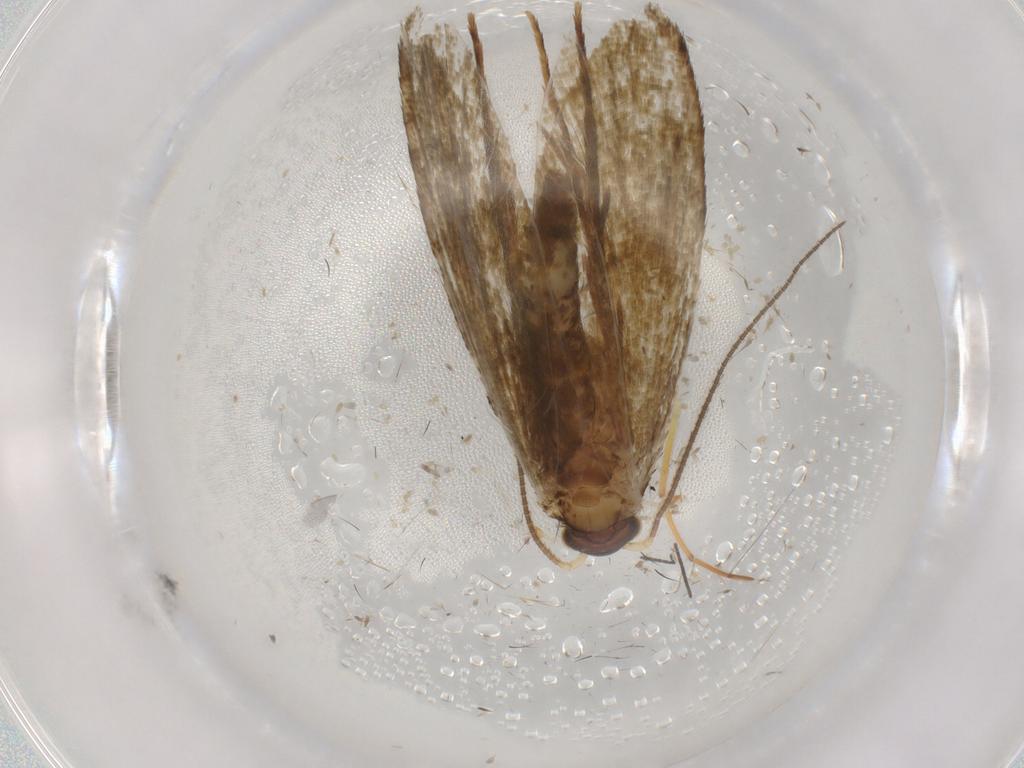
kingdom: Animalia
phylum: Arthropoda
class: Insecta
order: Lepidoptera
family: Tineidae
